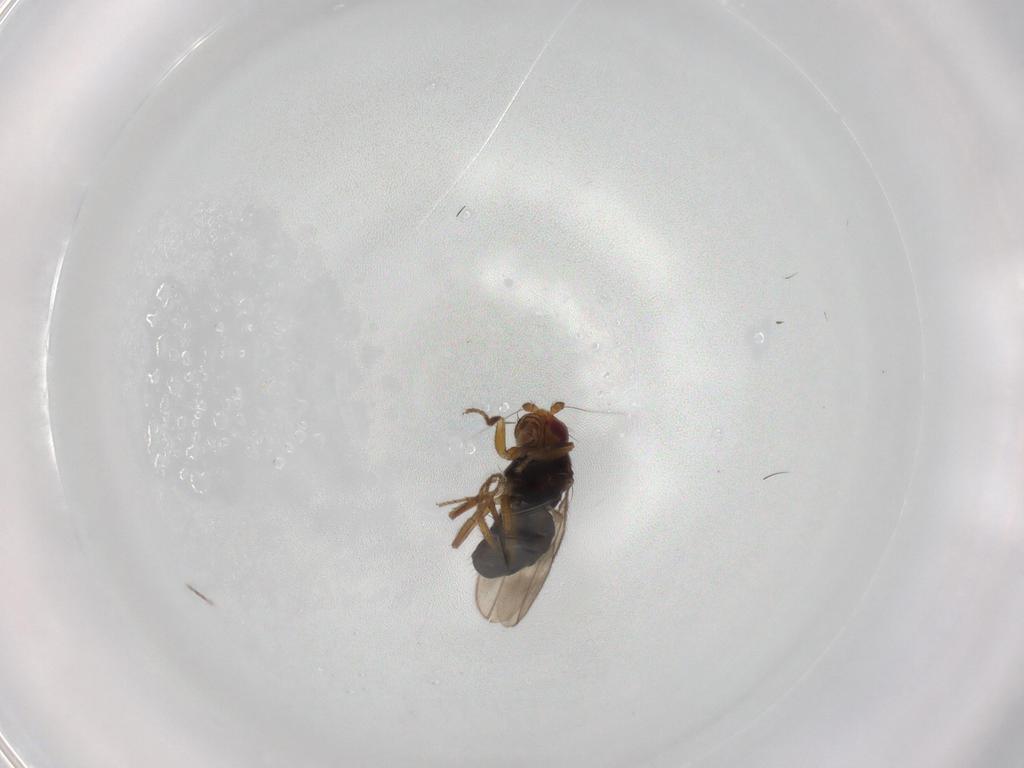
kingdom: Animalia
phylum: Arthropoda
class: Insecta
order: Diptera
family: Sphaeroceridae
